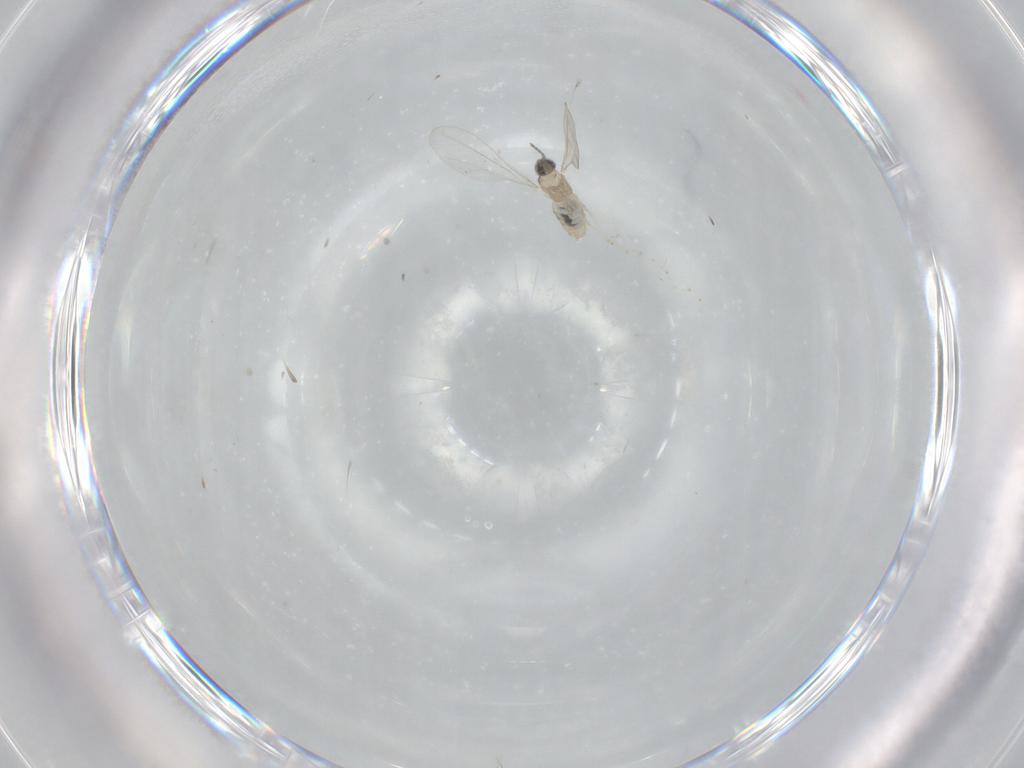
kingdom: Animalia
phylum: Arthropoda
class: Insecta
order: Diptera
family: Cecidomyiidae
